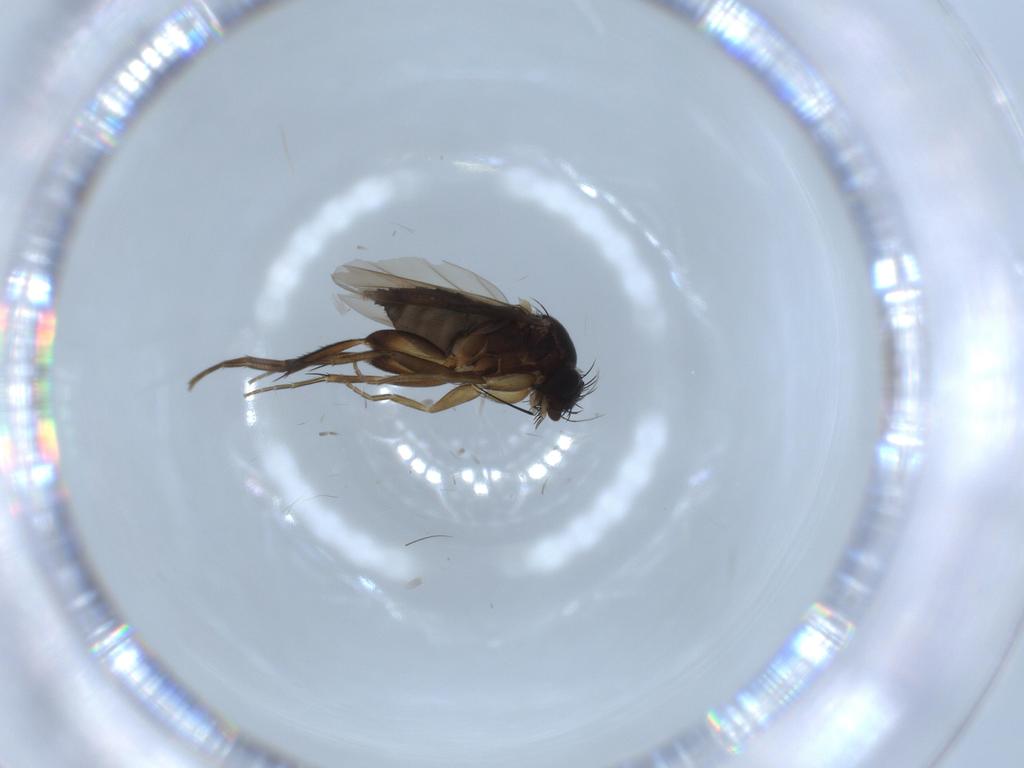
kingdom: Animalia
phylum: Arthropoda
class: Insecta
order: Diptera
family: Phoridae
